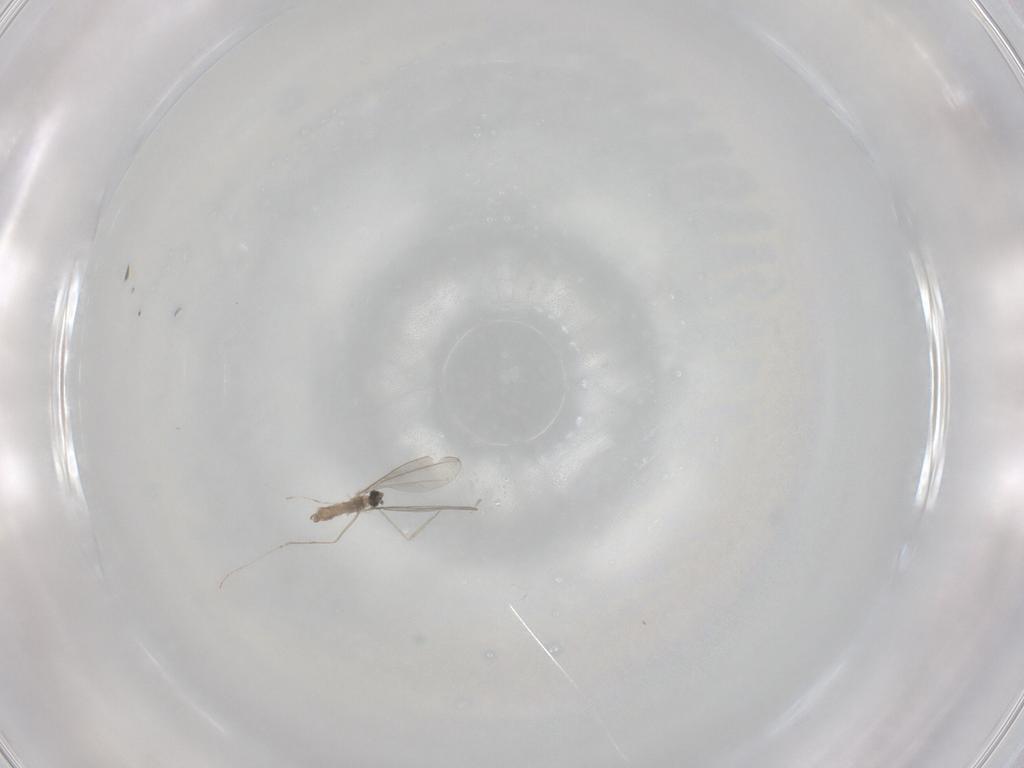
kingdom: Animalia
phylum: Arthropoda
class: Insecta
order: Diptera
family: Cecidomyiidae
